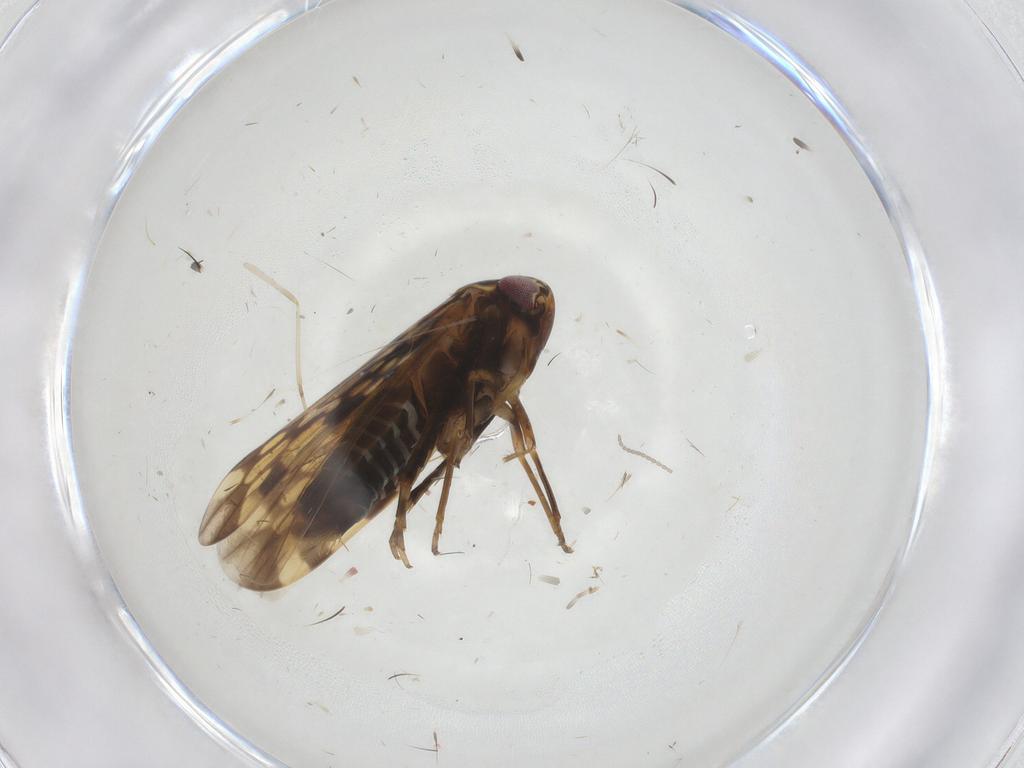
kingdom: Animalia
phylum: Arthropoda
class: Insecta
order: Hemiptera
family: Cicadellidae
